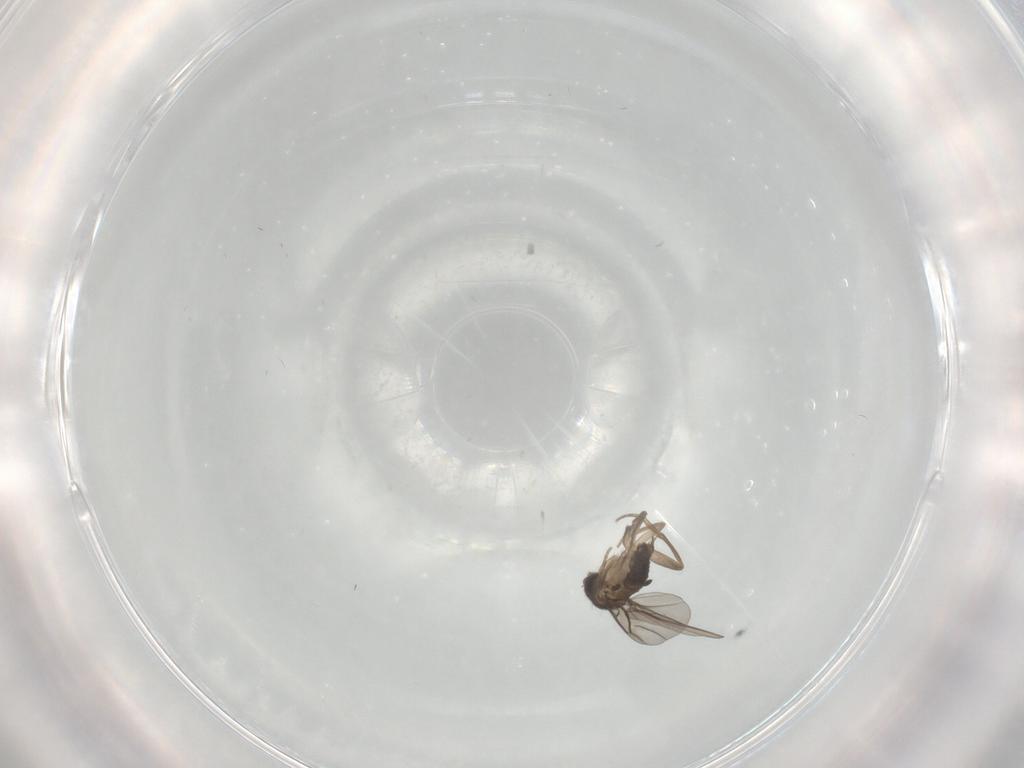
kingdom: Animalia
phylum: Arthropoda
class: Insecta
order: Diptera
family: Phoridae
